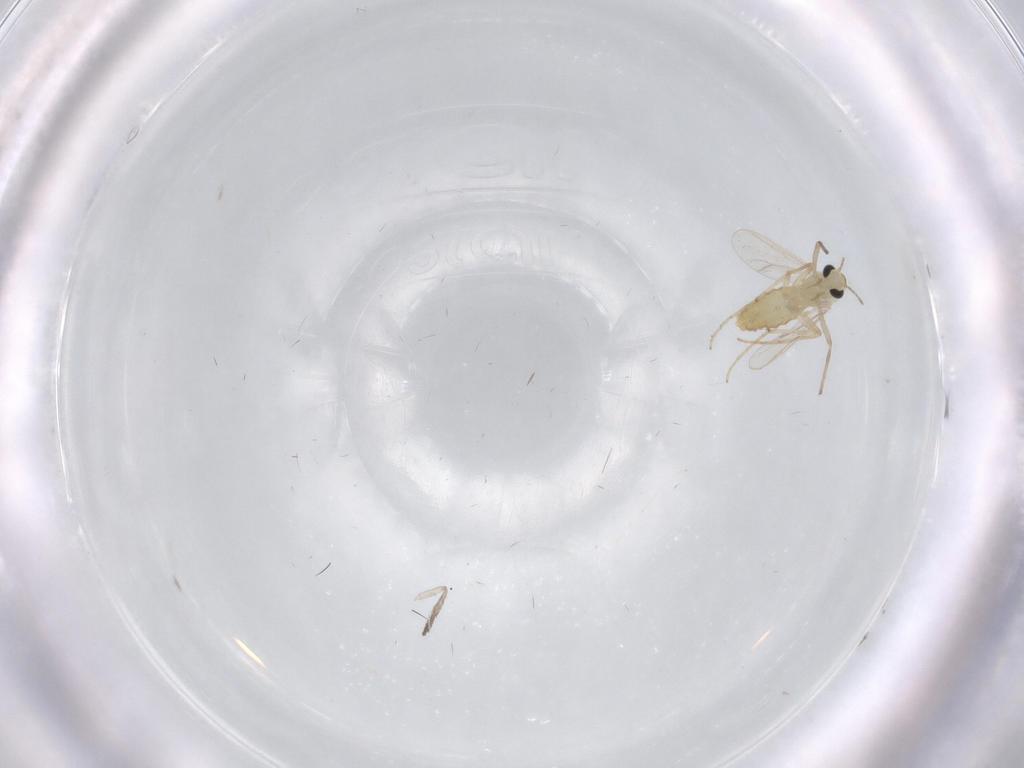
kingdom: Animalia
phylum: Arthropoda
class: Insecta
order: Diptera
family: Chironomidae
